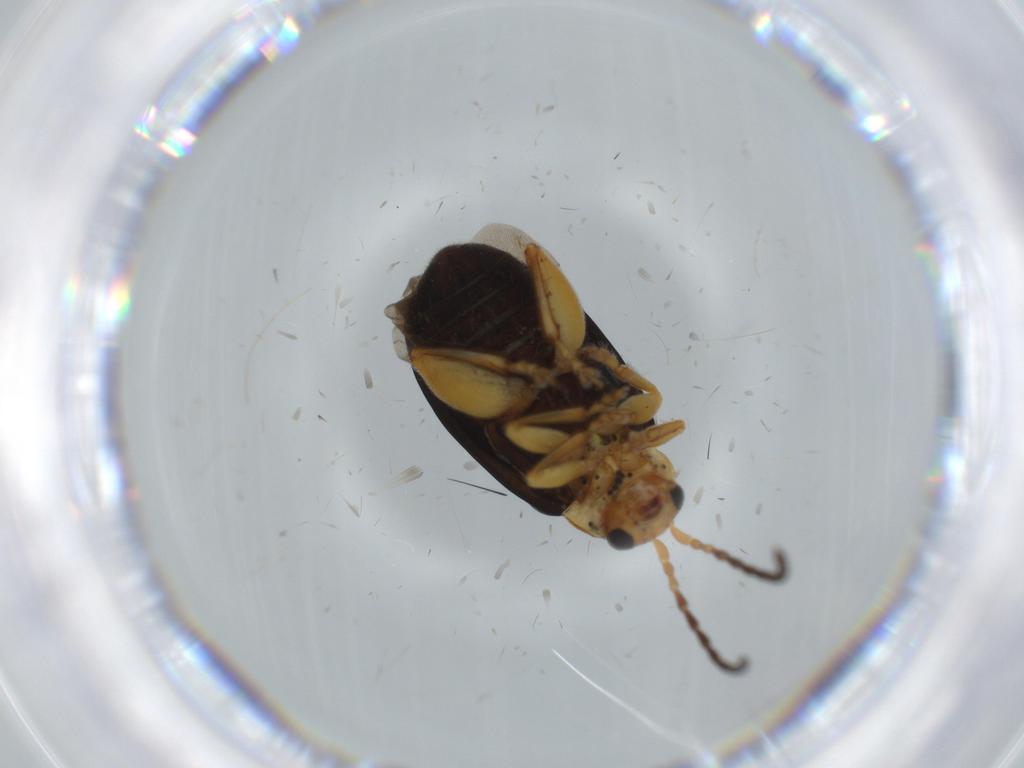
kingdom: Animalia
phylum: Arthropoda
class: Insecta
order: Coleoptera
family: Chrysomelidae
